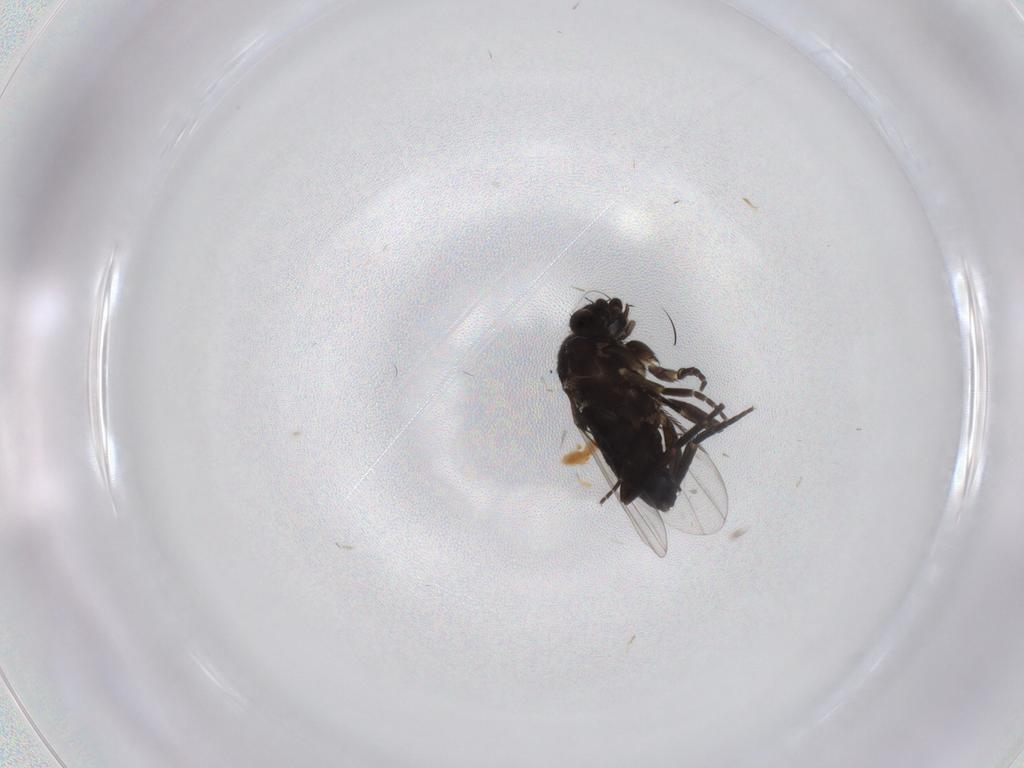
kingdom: Animalia
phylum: Arthropoda
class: Insecta
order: Diptera
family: Phoridae
